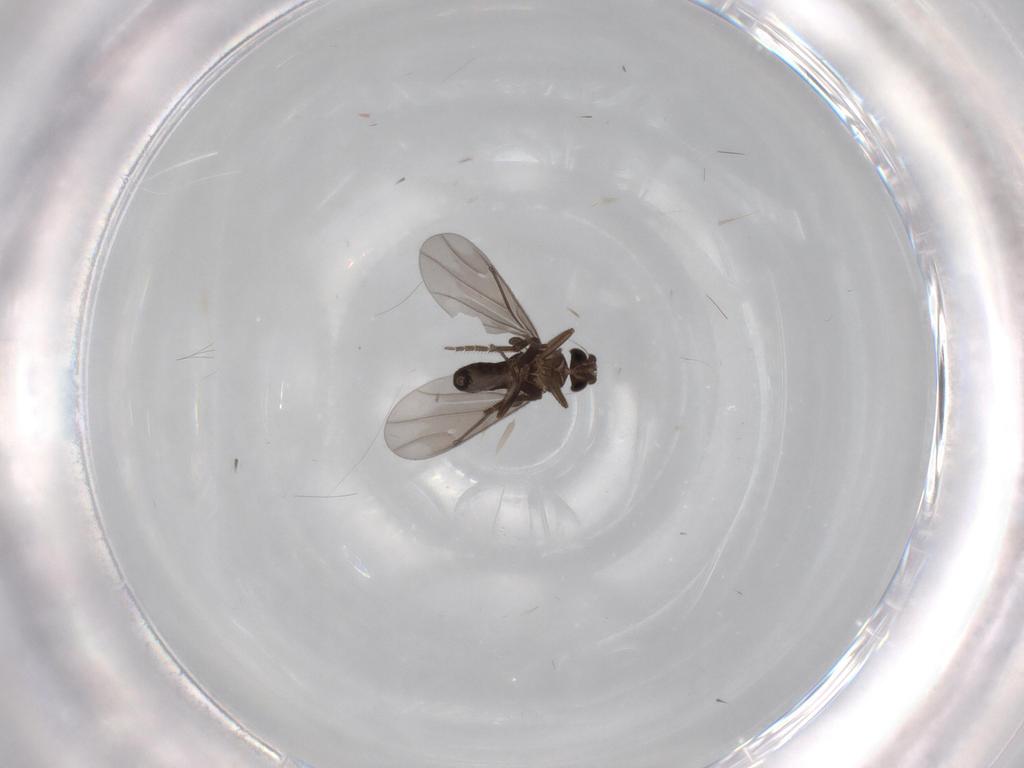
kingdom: Animalia
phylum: Arthropoda
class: Insecta
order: Diptera
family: Phoridae
